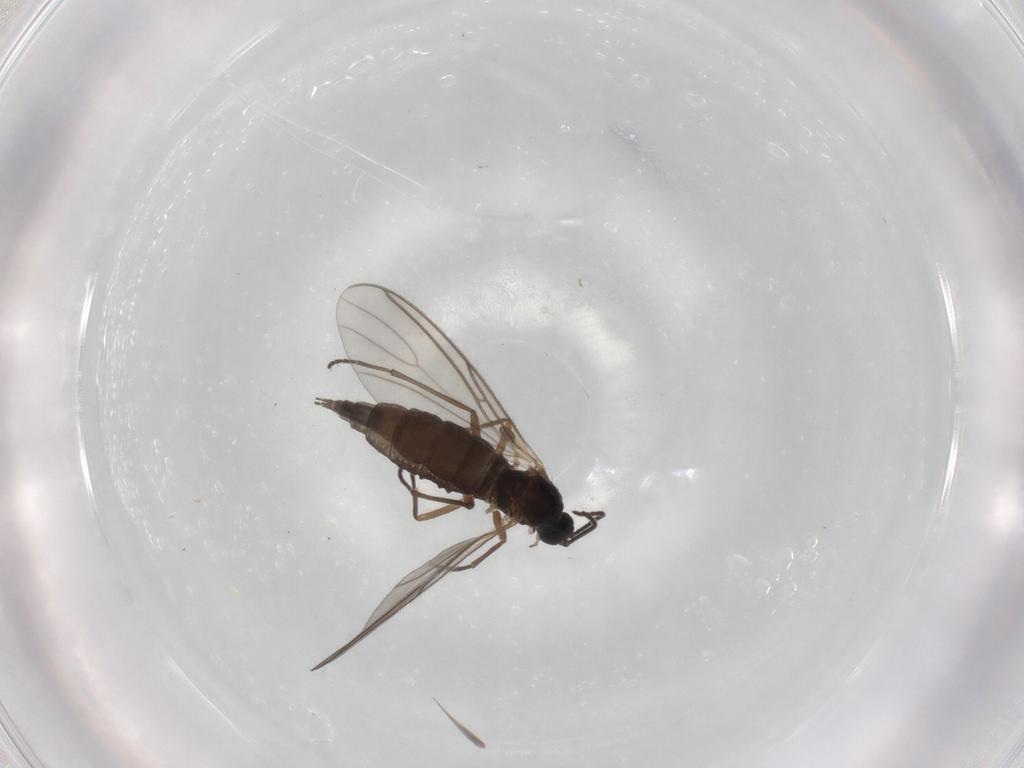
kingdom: Animalia
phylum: Arthropoda
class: Insecta
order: Diptera
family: Sciaridae
